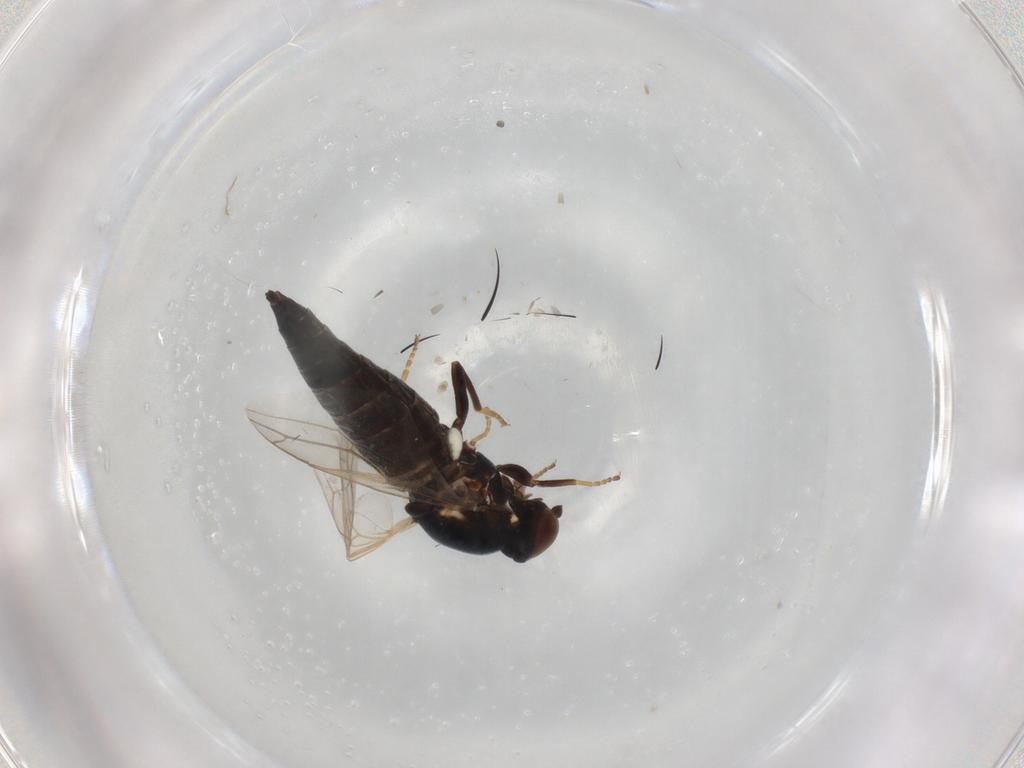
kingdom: Animalia
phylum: Arthropoda
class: Insecta
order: Diptera
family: Scenopinidae
